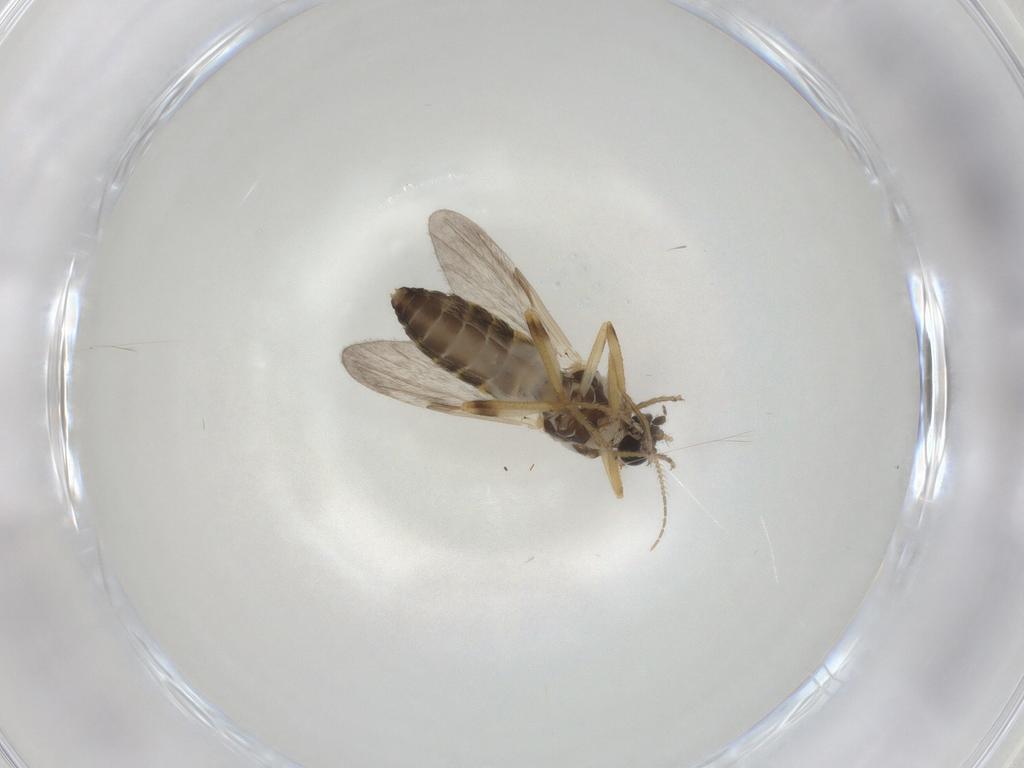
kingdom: Animalia
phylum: Arthropoda
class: Insecta
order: Diptera
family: Ceratopogonidae
